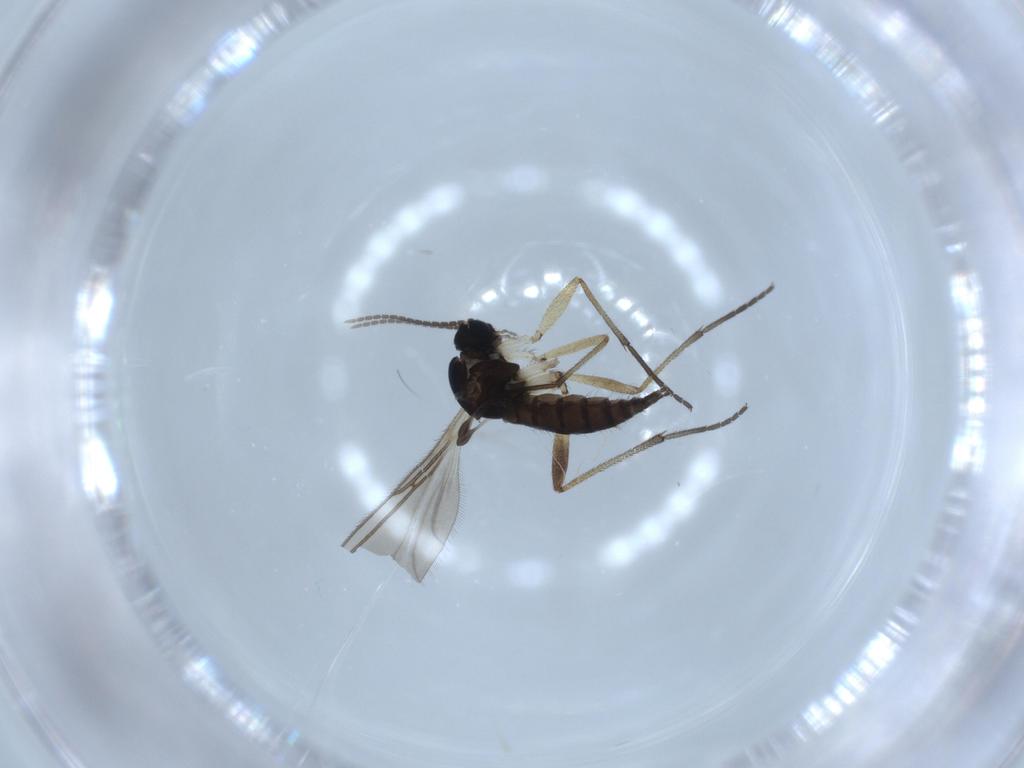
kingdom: Animalia
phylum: Arthropoda
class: Insecta
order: Diptera
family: Sciaridae
